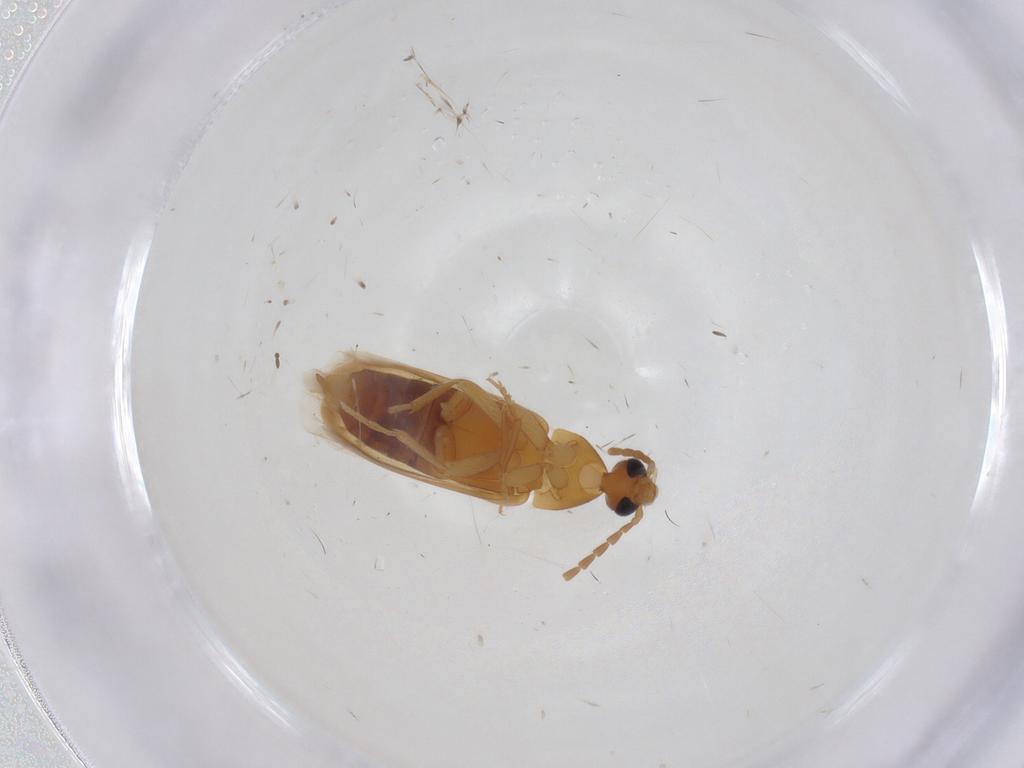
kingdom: Animalia
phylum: Arthropoda
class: Insecta
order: Coleoptera
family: Scraptiidae
